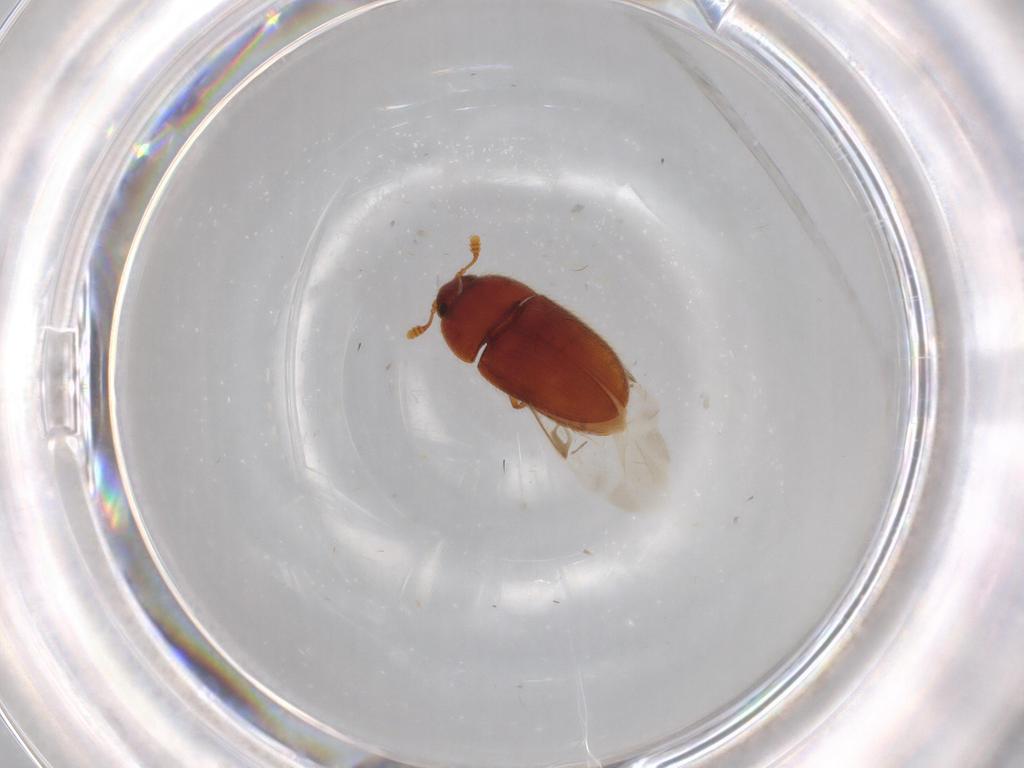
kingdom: Animalia
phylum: Arthropoda
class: Insecta
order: Coleoptera
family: Biphyllidae
